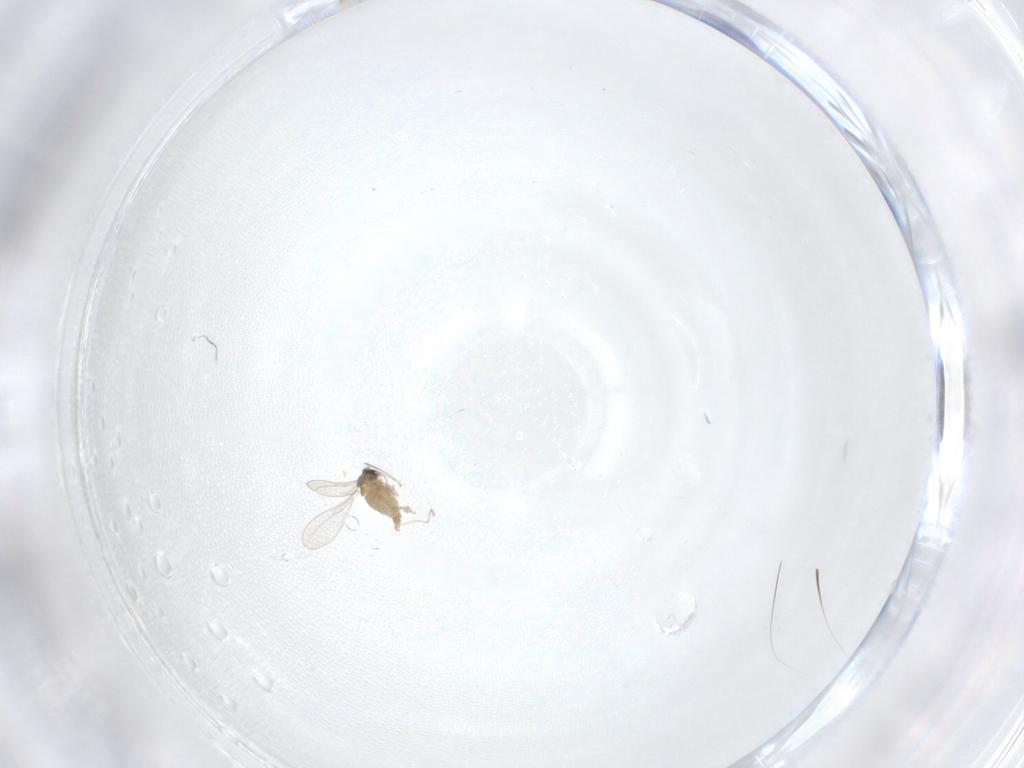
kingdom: Animalia
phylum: Arthropoda
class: Insecta
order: Diptera
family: Cecidomyiidae
